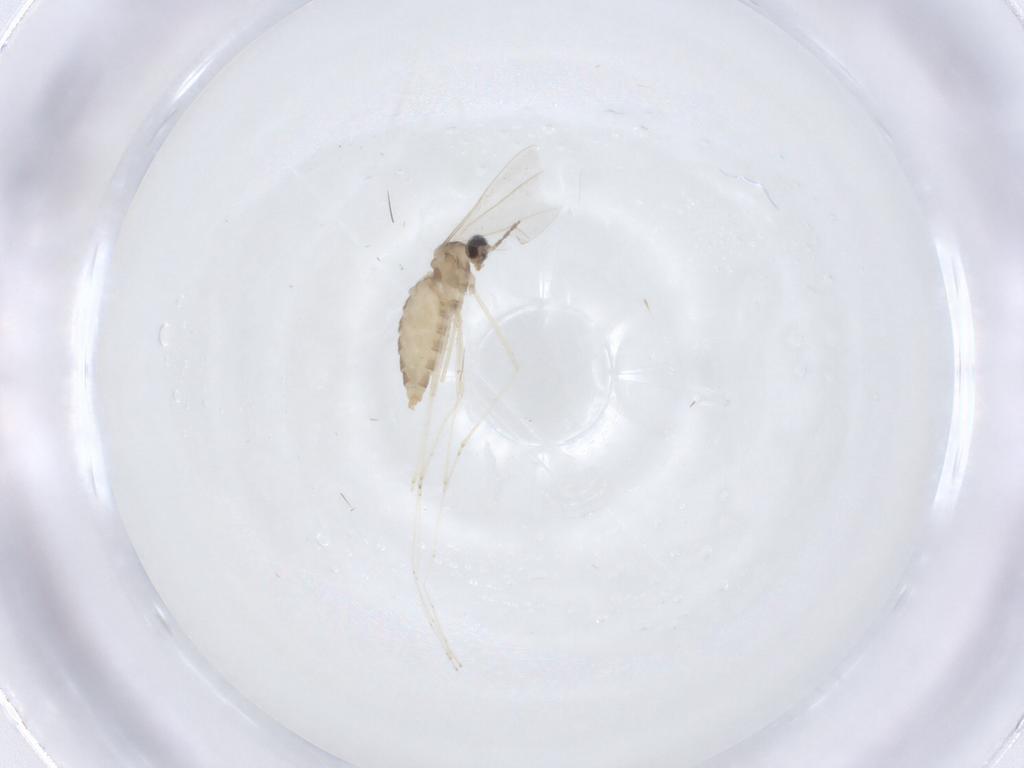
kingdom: Animalia
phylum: Arthropoda
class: Insecta
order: Diptera
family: Cecidomyiidae
